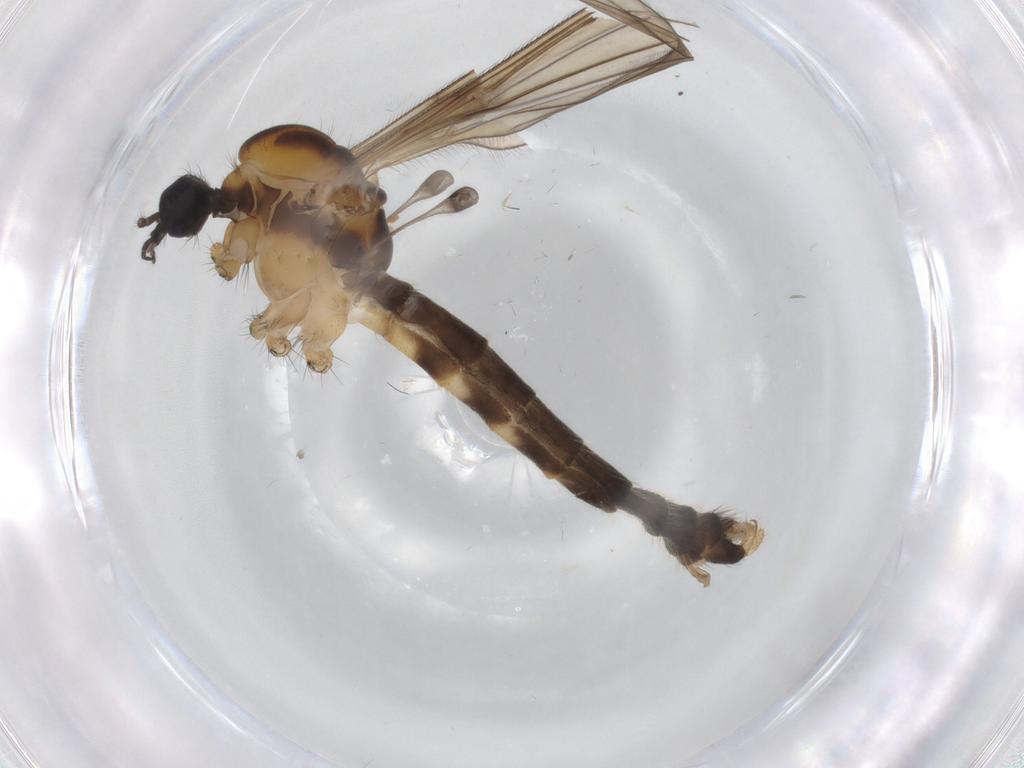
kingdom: Animalia
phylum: Arthropoda
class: Insecta
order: Diptera
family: Limoniidae
